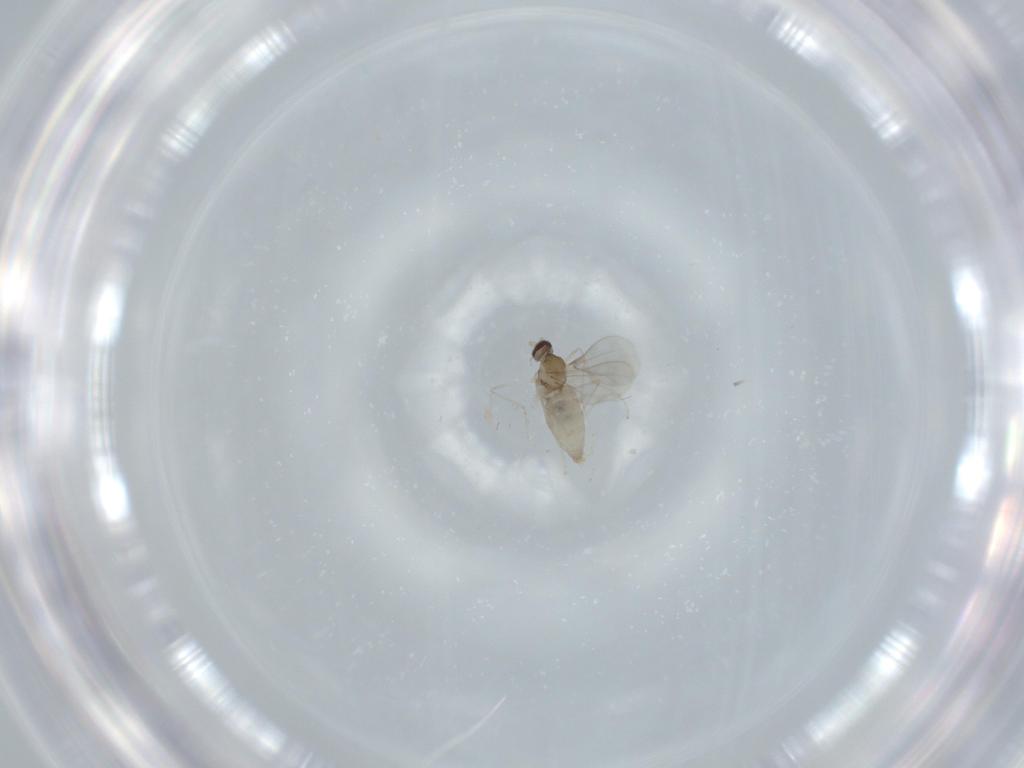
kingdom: Animalia
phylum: Arthropoda
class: Insecta
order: Diptera
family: Cecidomyiidae
